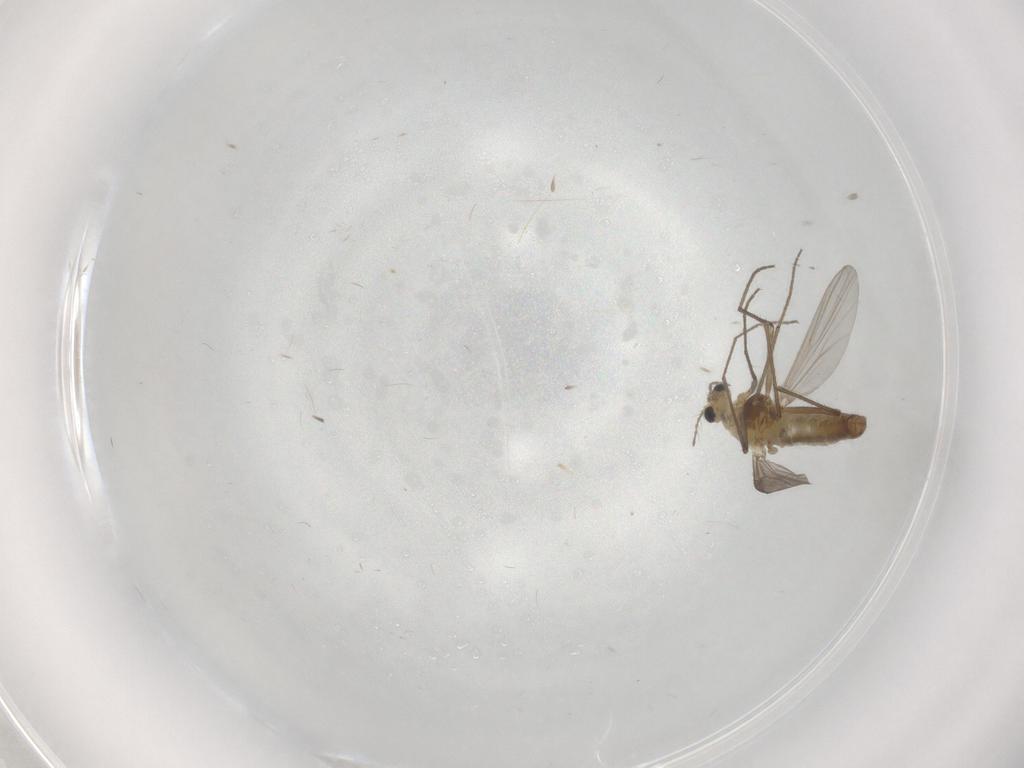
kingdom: Animalia
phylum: Arthropoda
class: Insecta
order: Diptera
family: Chironomidae
